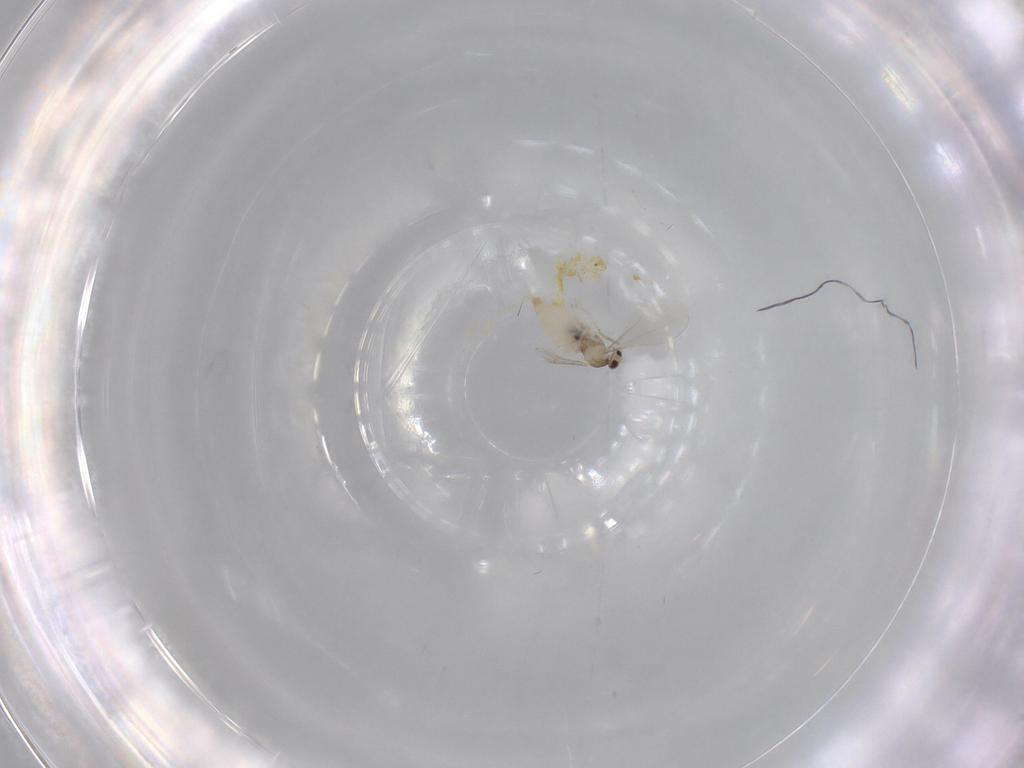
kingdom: Animalia
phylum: Arthropoda
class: Insecta
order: Diptera
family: Cecidomyiidae
